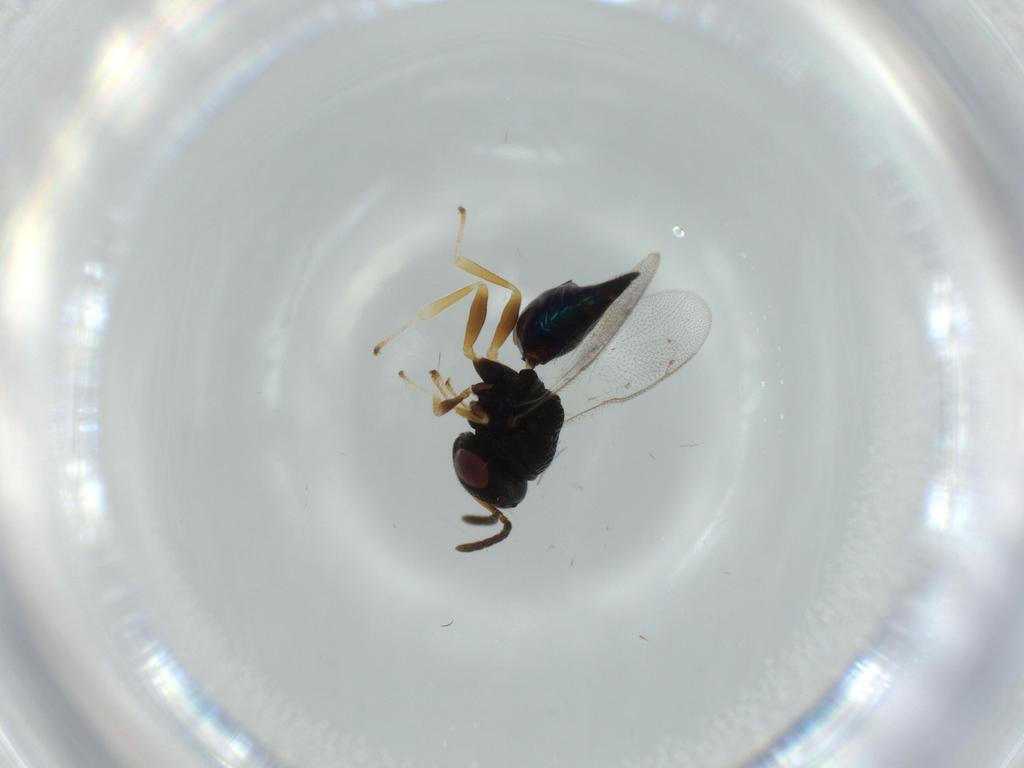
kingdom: Animalia
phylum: Arthropoda
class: Insecta
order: Hymenoptera
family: Pteromalidae
